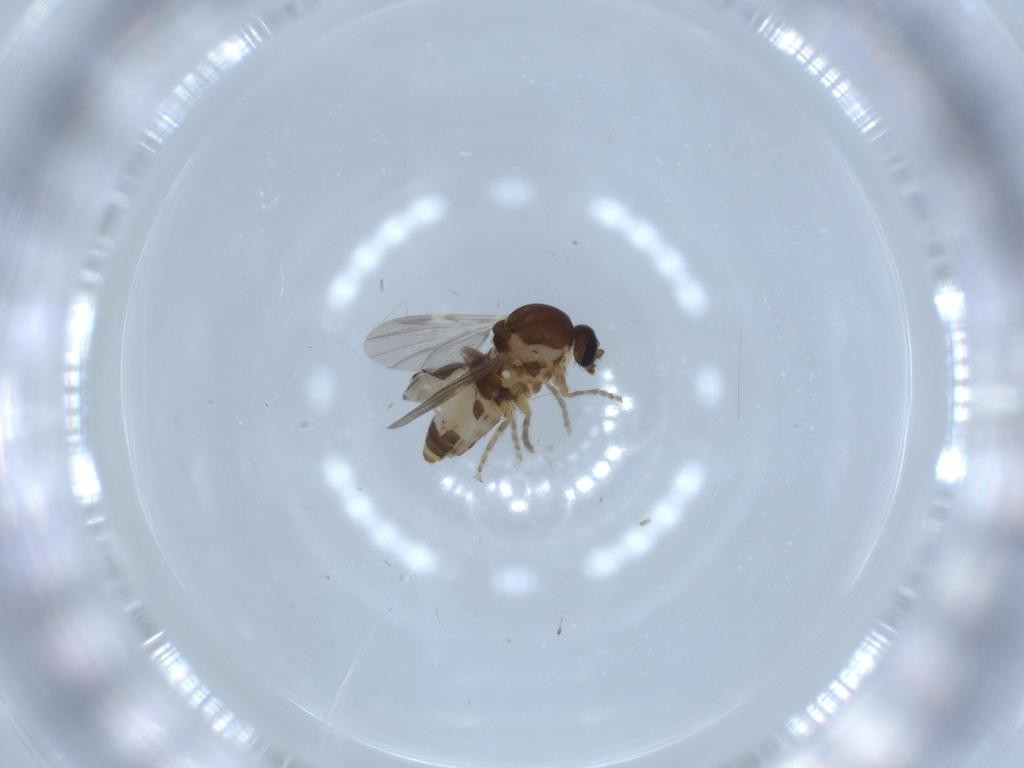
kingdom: Animalia
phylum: Arthropoda
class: Insecta
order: Diptera
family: Ceratopogonidae
